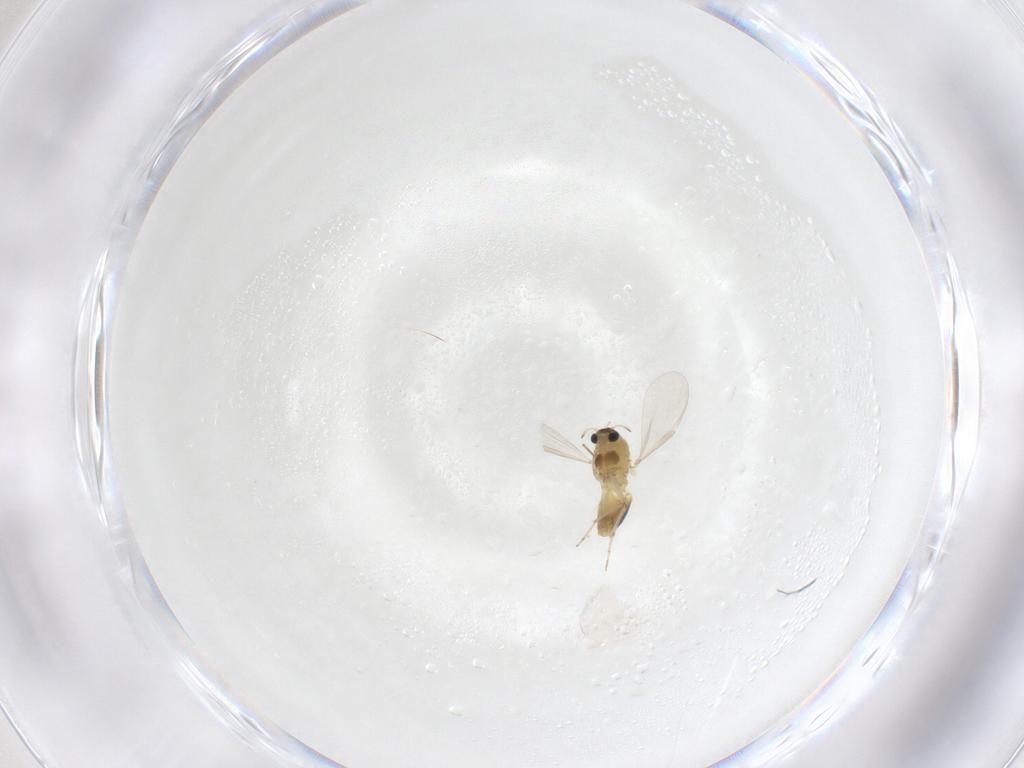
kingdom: Animalia
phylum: Arthropoda
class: Insecta
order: Diptera
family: Chironomidae
